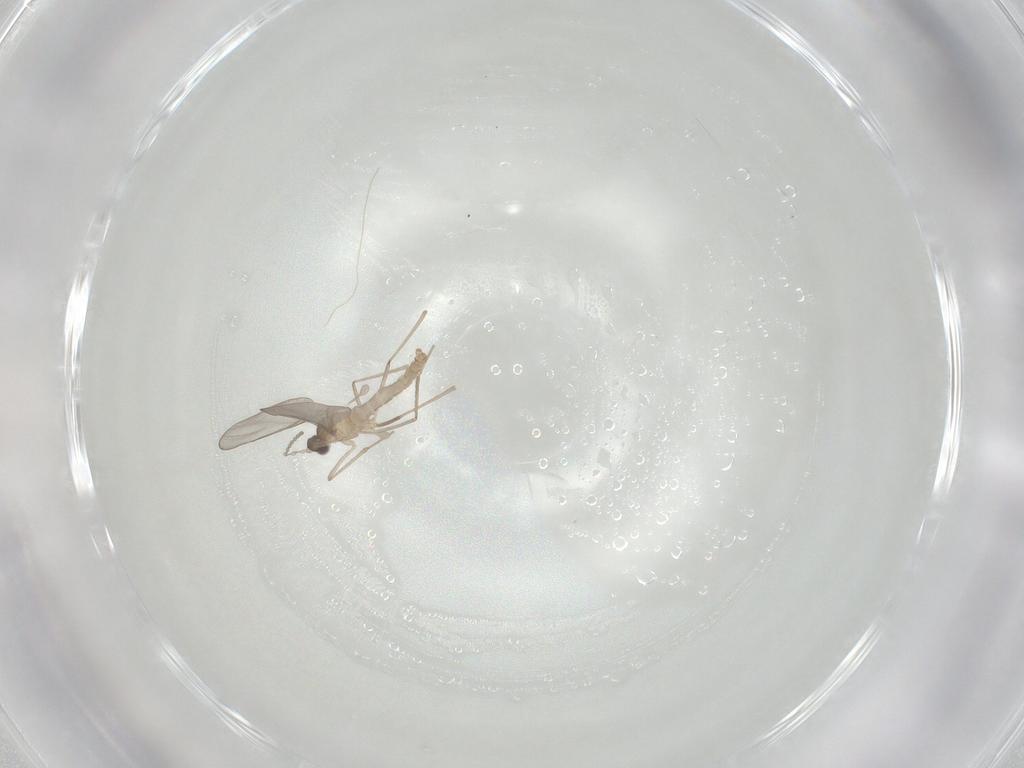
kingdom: Animalia
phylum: Arthropoda
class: Insecta
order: Diptera
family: Cecidomyiidae
